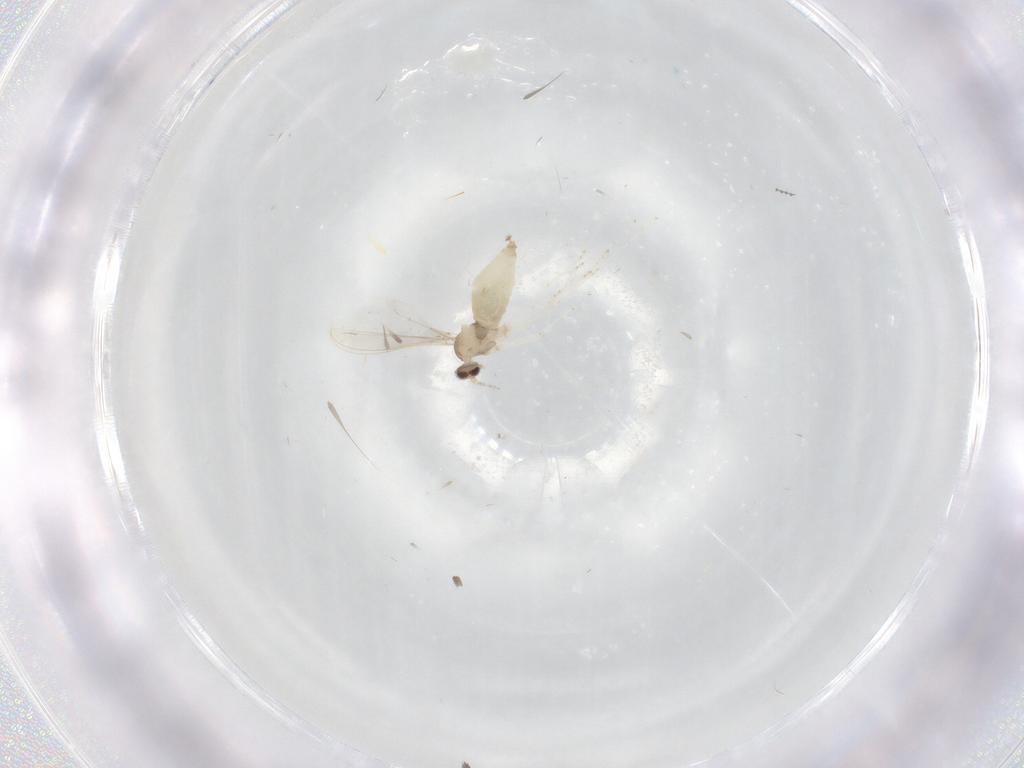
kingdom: Animalia
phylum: Arthropoda
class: Insecta
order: Diptera
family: Cecidomyiidae
